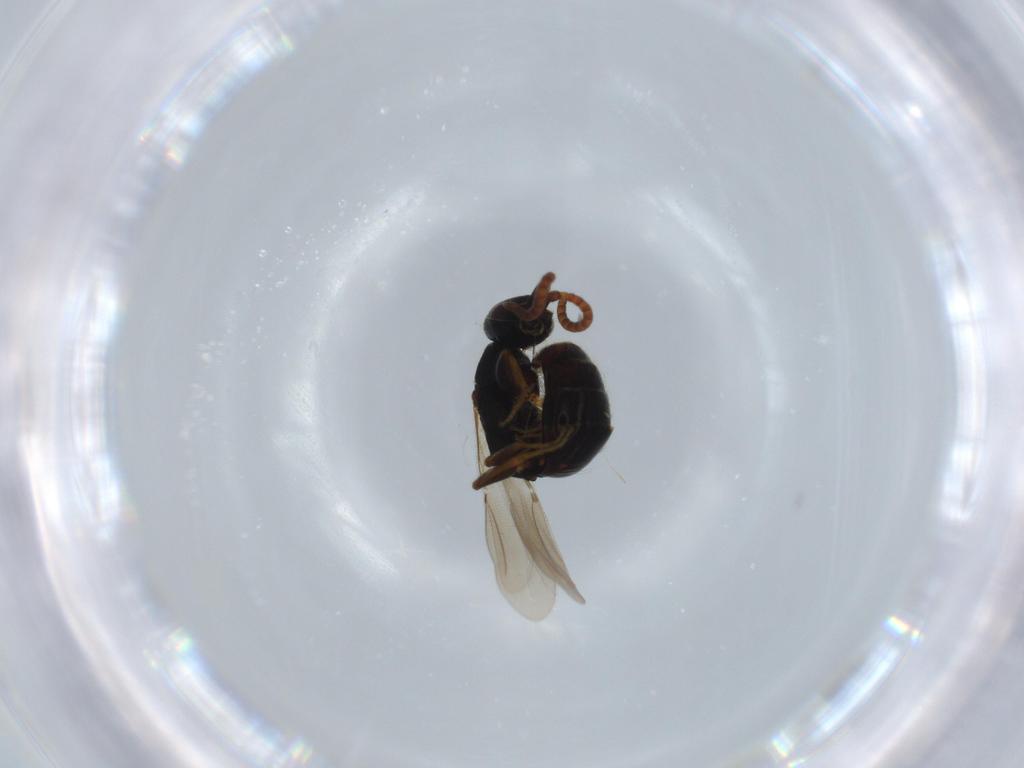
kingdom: Animalia
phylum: Arthropoda
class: Insecta
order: Hymenoptera
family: Bethylidae
